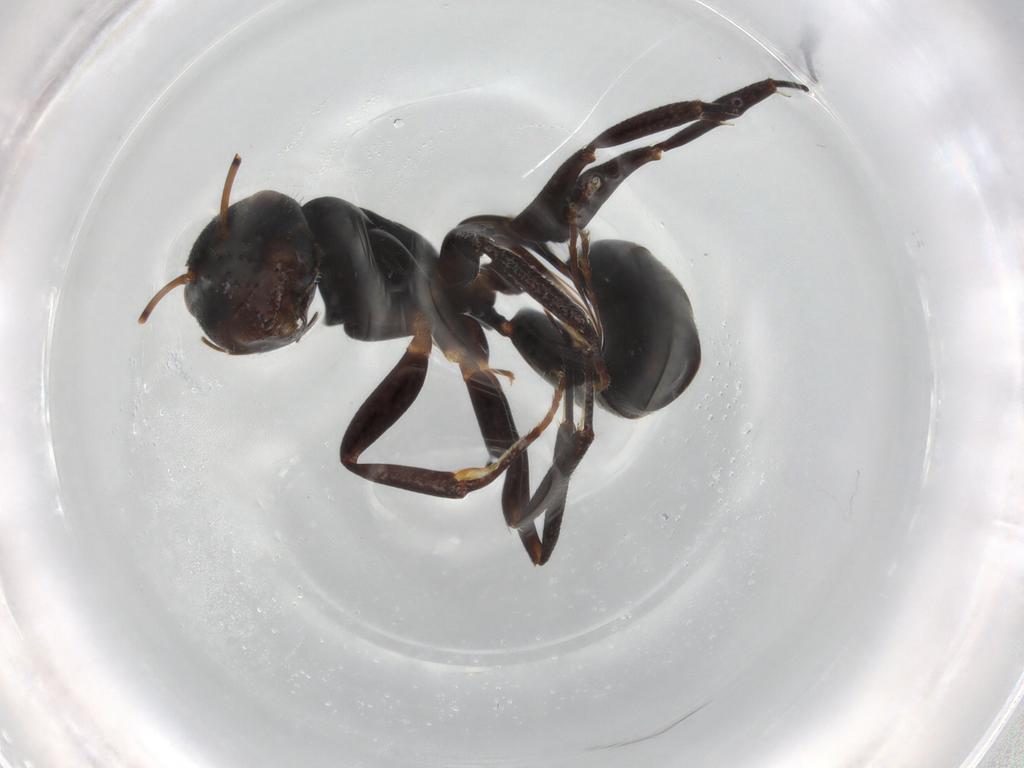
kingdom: Animalia
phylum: Arthropoda
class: Insecta
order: Hymenoptera
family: Formicidae
